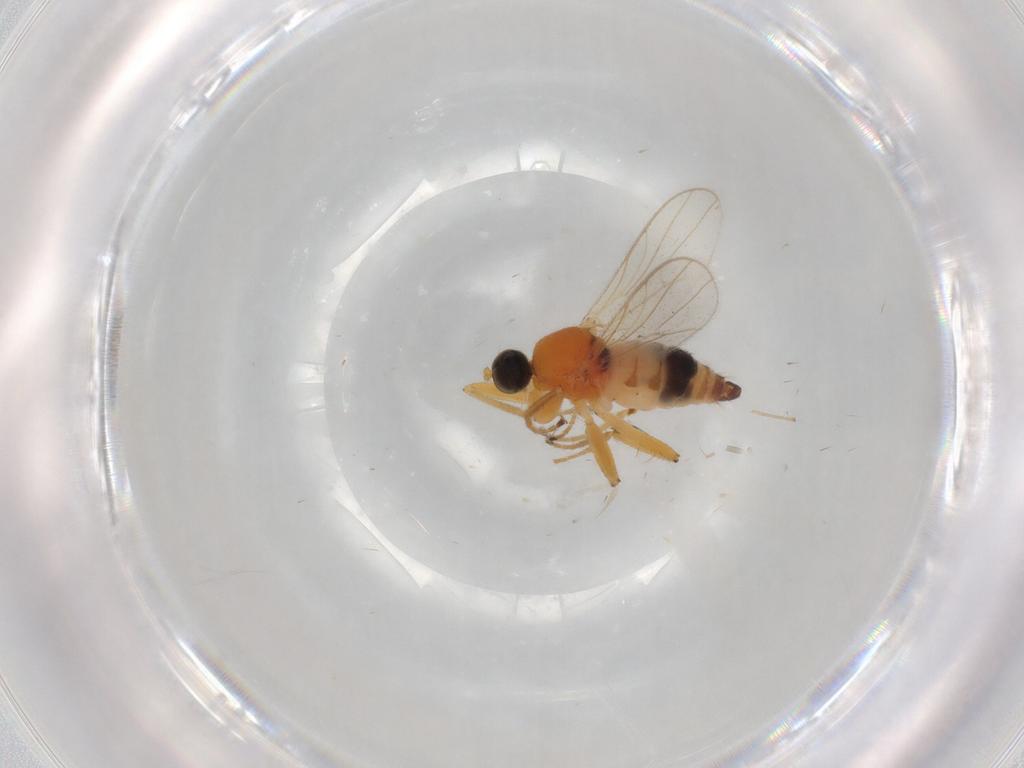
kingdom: Animalia
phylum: Arthropoda
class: Insecta
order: Diptera
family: Hybotidae
